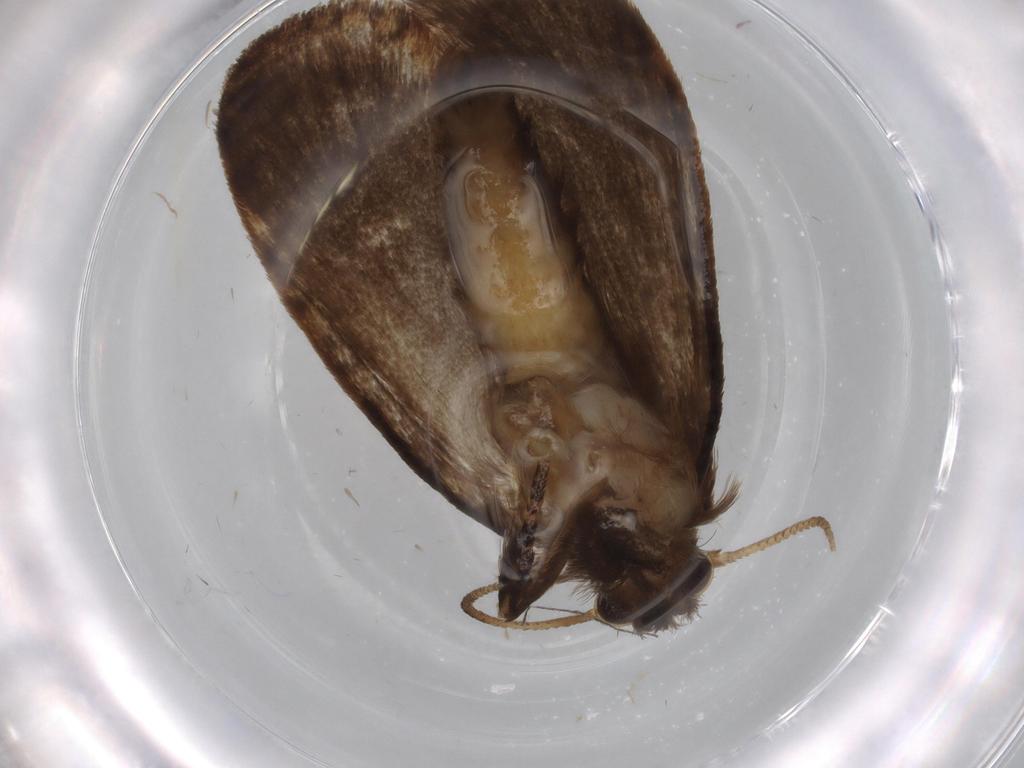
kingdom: Animalia
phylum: Arthropoda
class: Insecta
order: Lepidoptera
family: Tineidae
